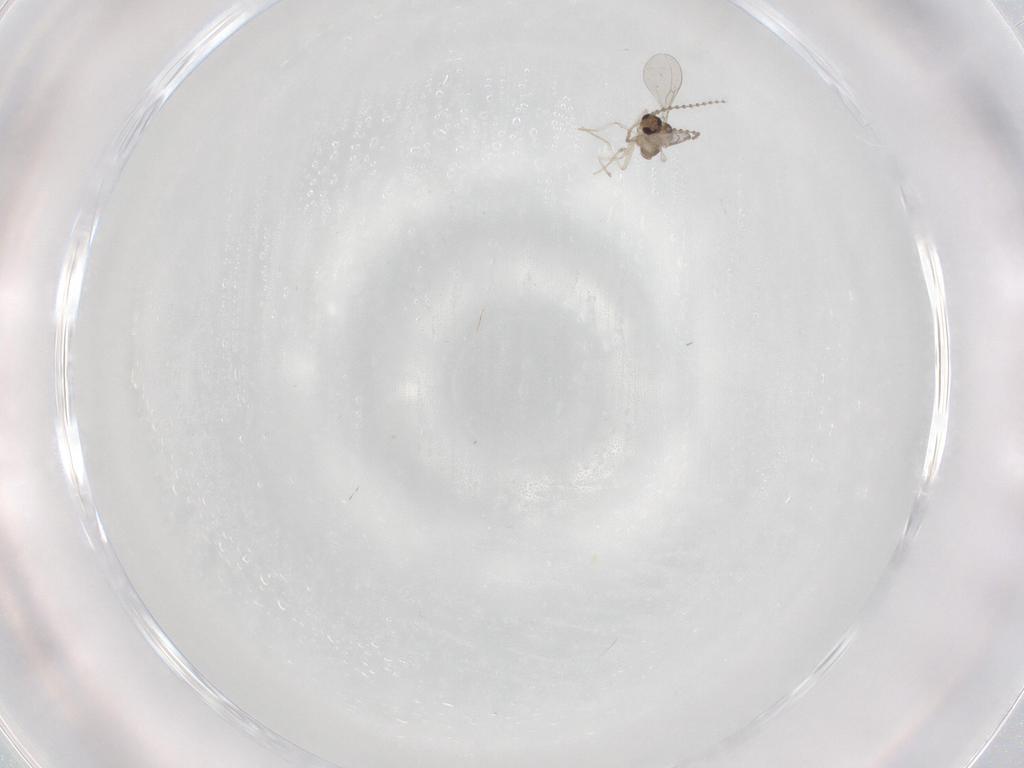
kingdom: Animalia
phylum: Arthropoda
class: Insecta
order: Diptera
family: Cecidomyiidae
